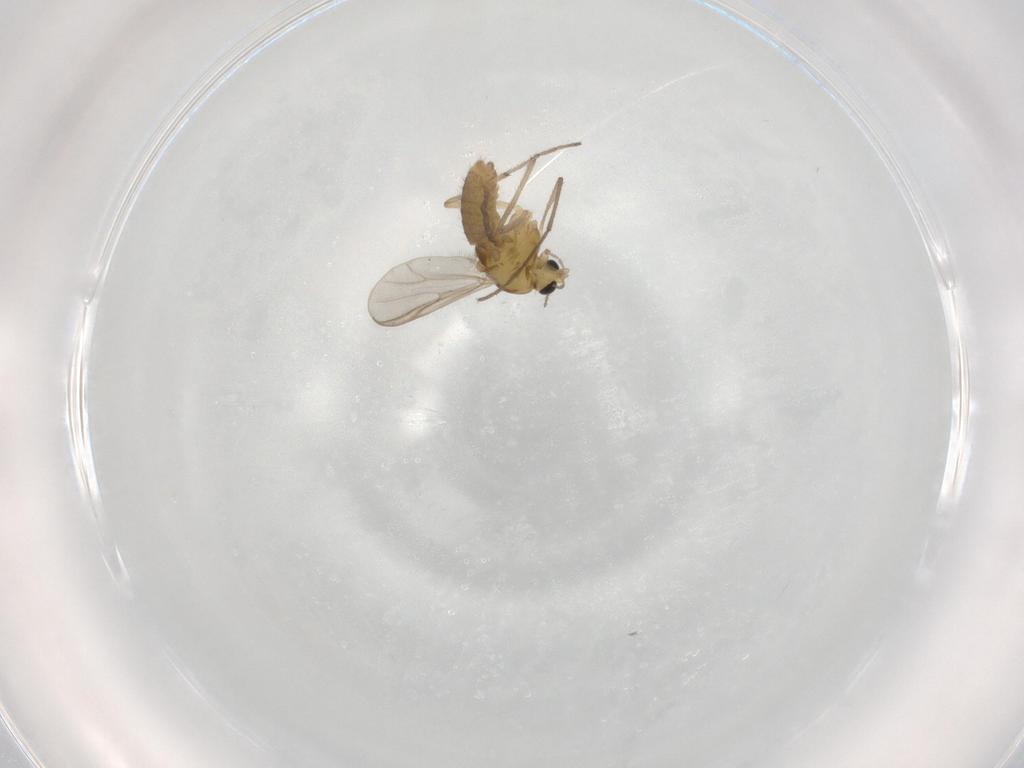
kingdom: Animalia
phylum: Arthropoda
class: Insecta
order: Diptera
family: Chironomidae
